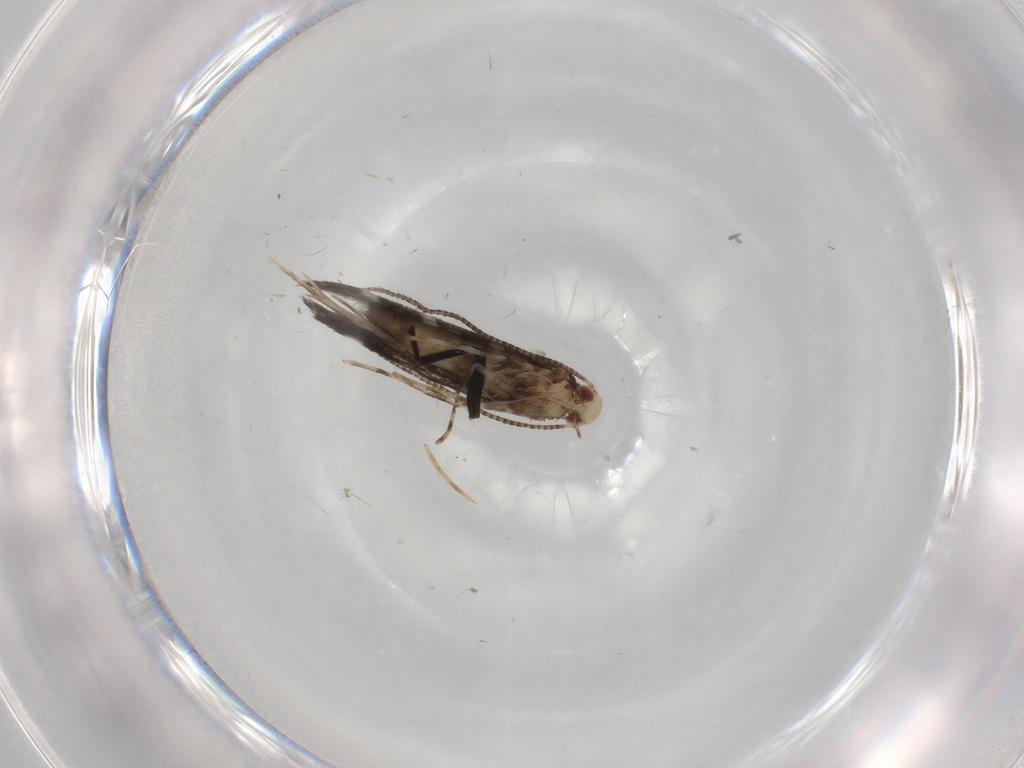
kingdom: Animalia
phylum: Arthropoda
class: Insecta
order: Lepidoptera
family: Gracillariidae
